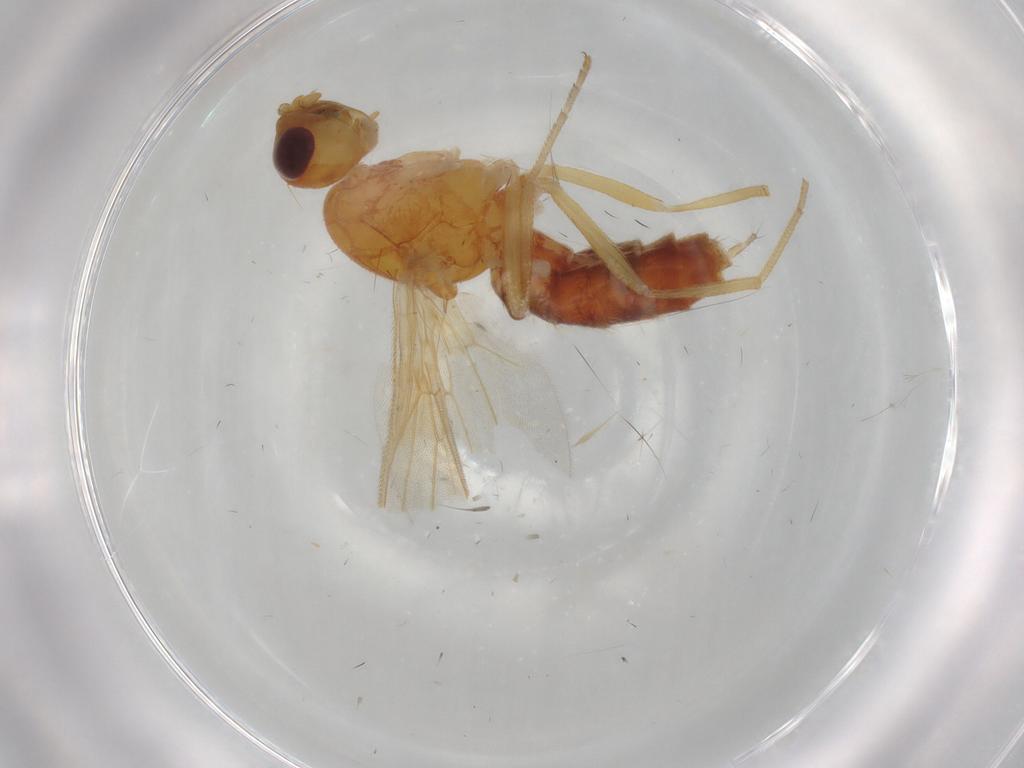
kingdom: Animalia
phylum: Arthropoda
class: Insecta
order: Diptera
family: Psilidae
